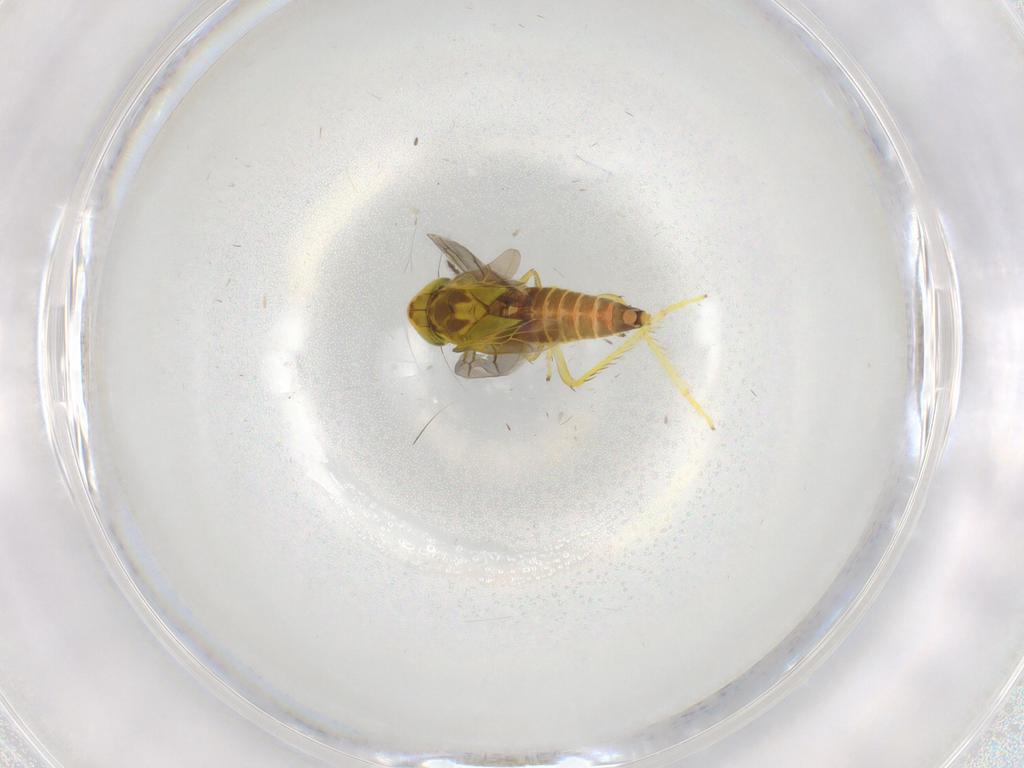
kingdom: Animalia
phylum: Arthropoda
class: Insecta
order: Hemiptera
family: Cicadellidae
